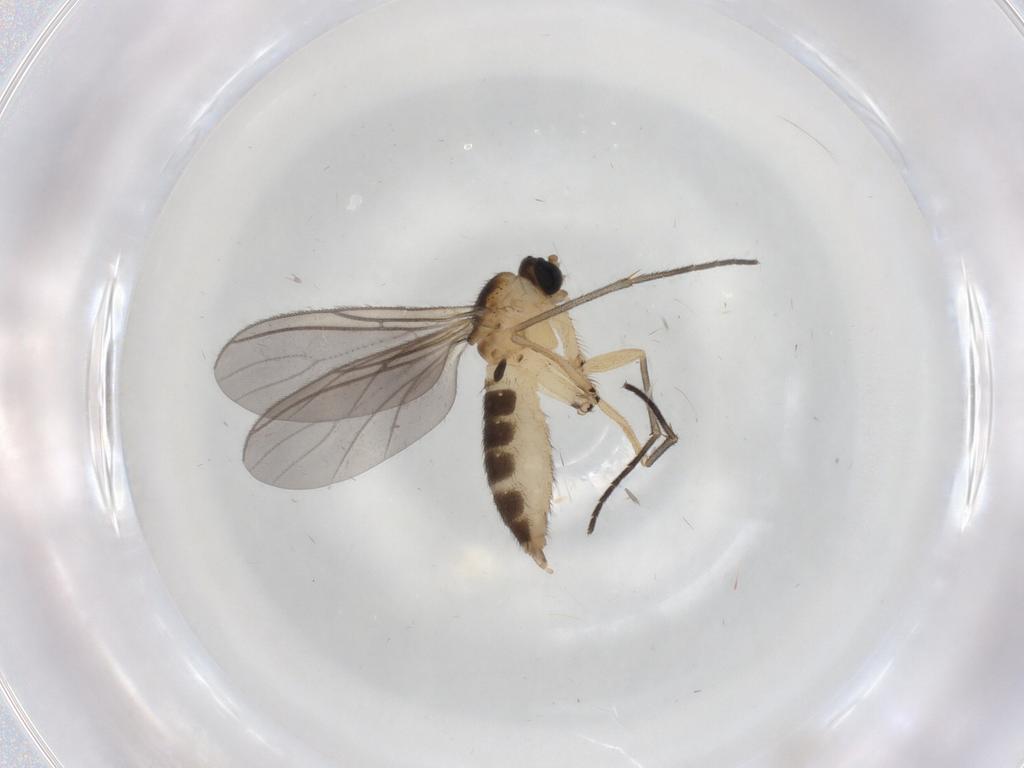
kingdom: Animalia
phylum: Arthropoda
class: Insecta
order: Diptera
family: Sciaridae
